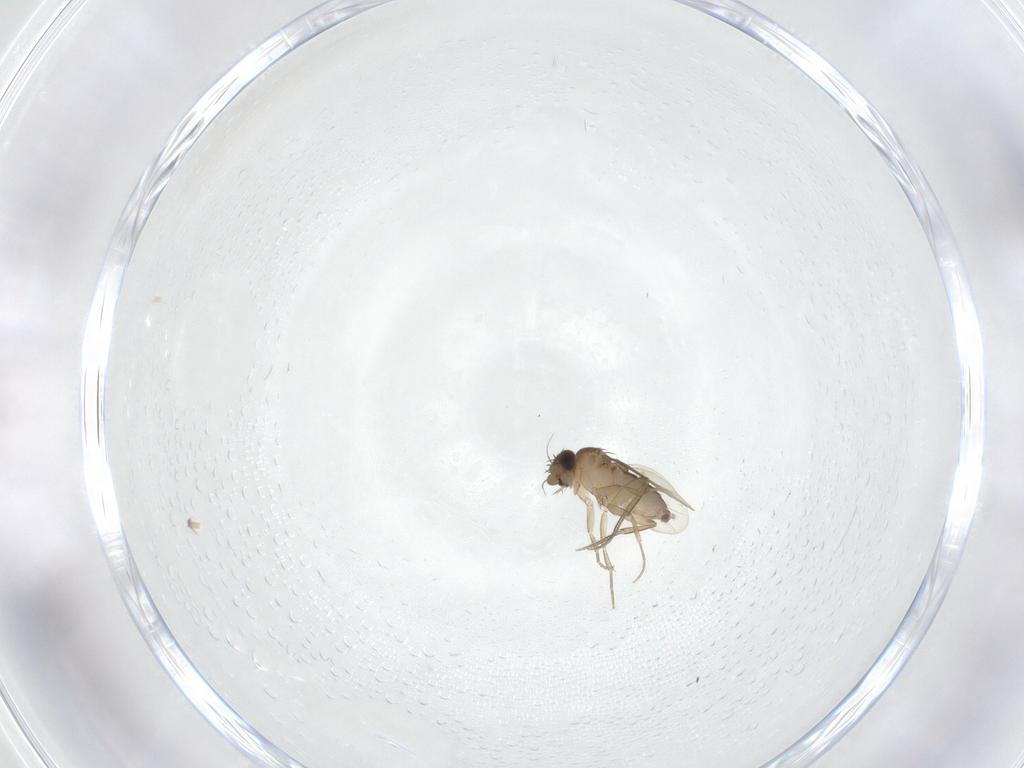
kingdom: Animalia
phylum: Arthropoda
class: Insecta
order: Diptera
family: Phoridae
